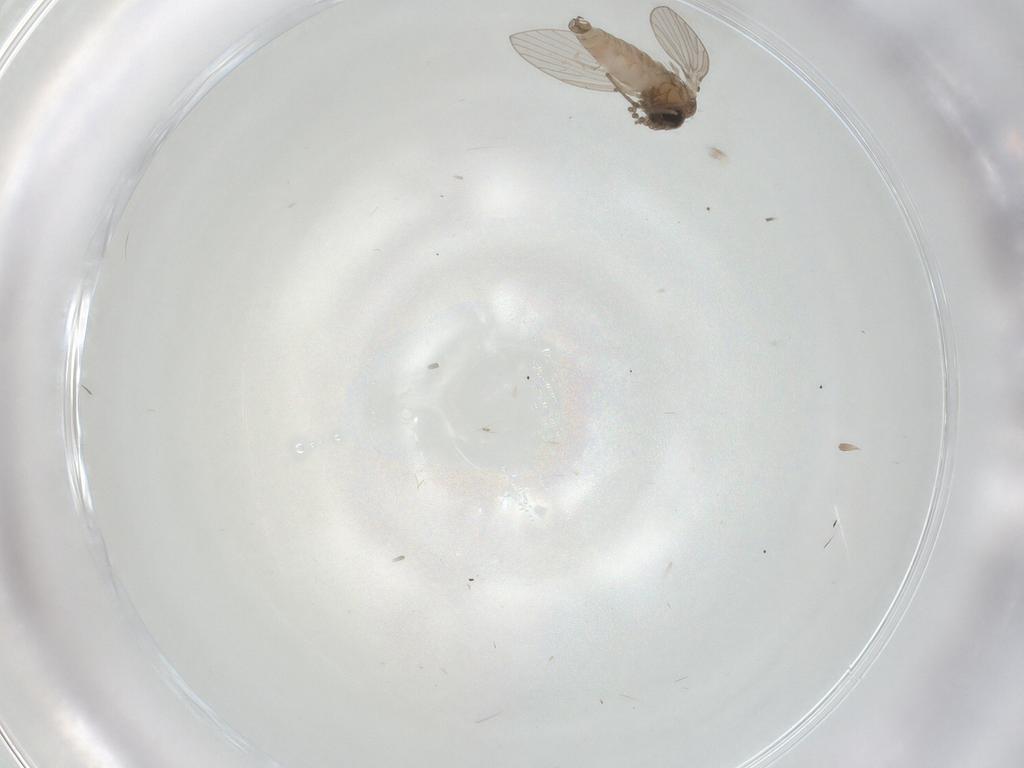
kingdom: Animalia
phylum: Arthropoda
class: Insecta
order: Diptera
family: Psychodidae
